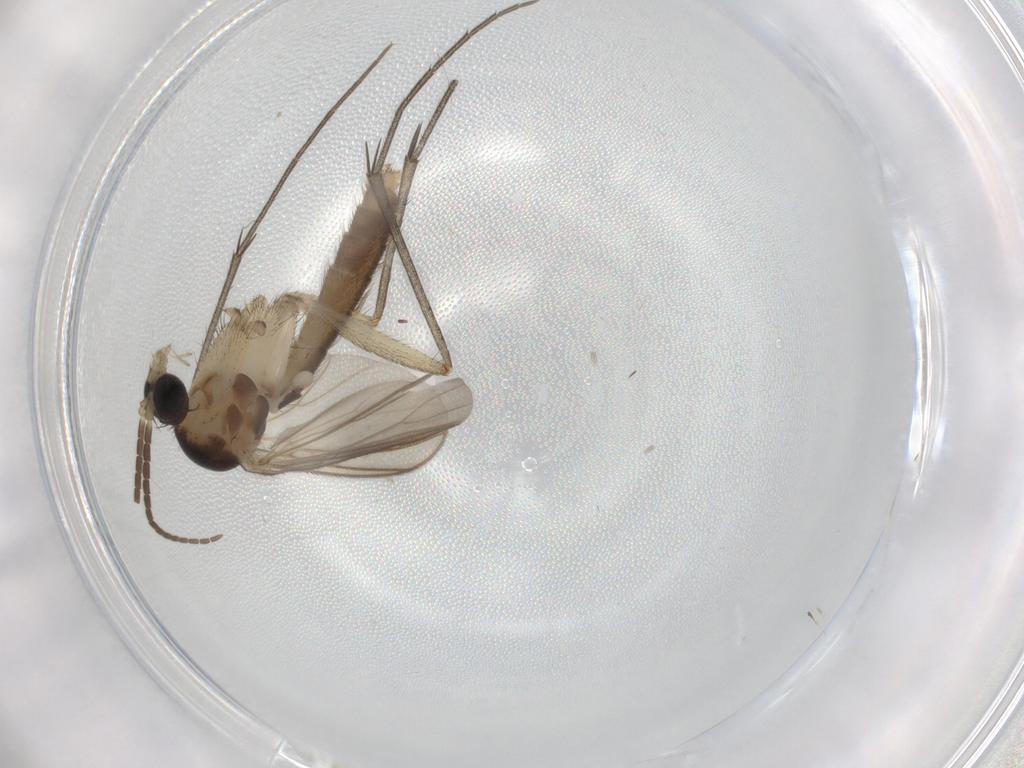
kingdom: Animalia
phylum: Arthropoda
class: Insecta
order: Diptera
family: Mycetophilidae
